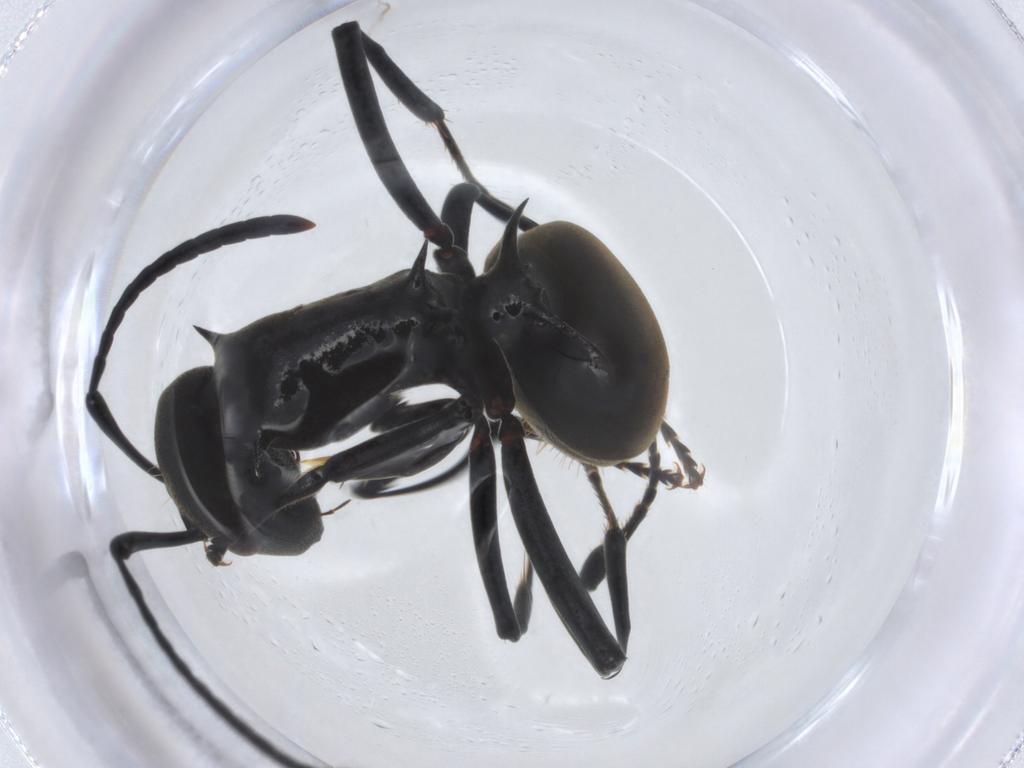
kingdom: Animalia
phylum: Arthropoda
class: Insecta
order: Hymenoptera
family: Formicidae
